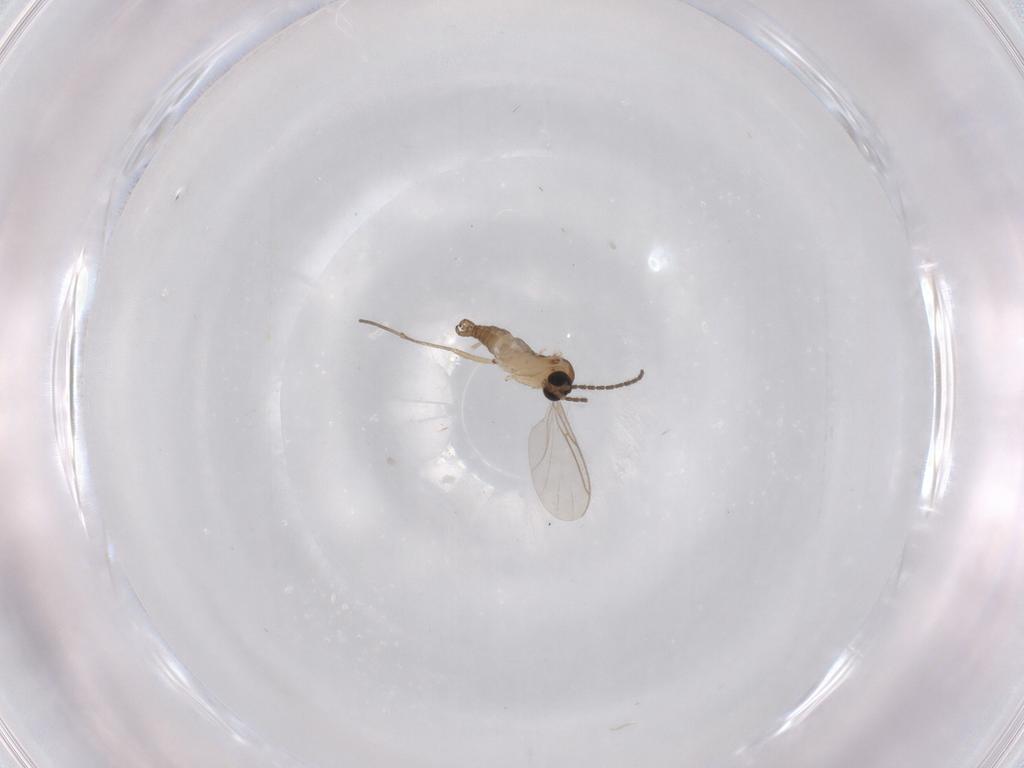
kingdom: Animalia
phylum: Arthropoda
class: Insecta
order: Diptera
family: Sciaridae
